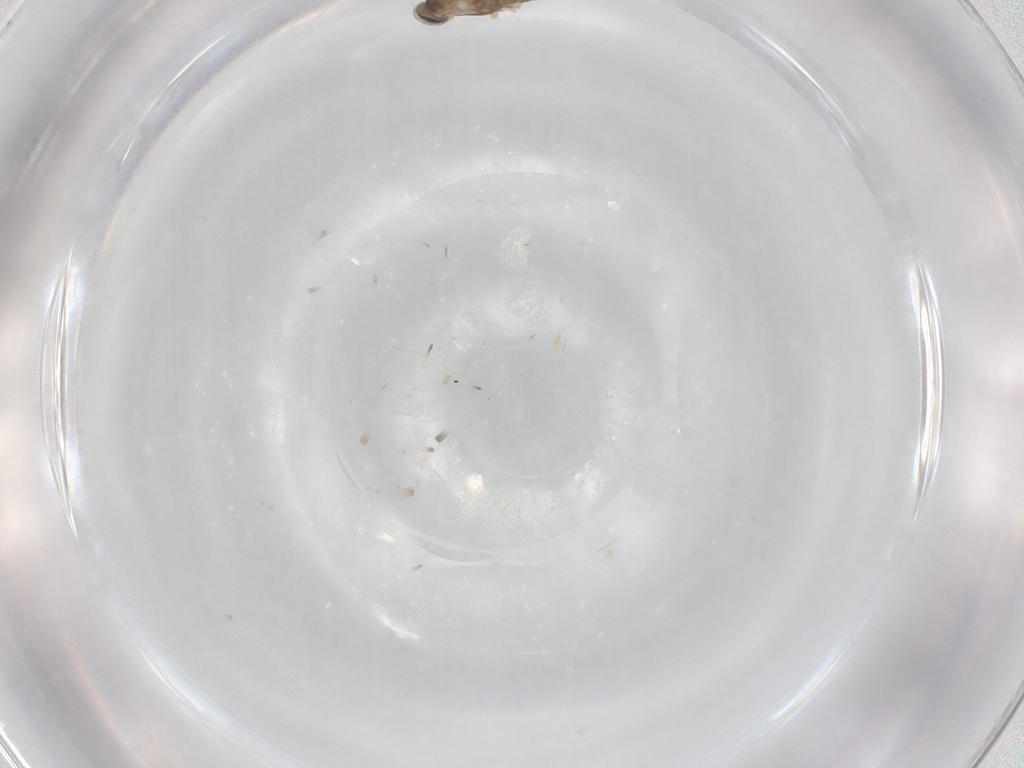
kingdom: Animalia
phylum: Arthropoda
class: Insecta
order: Diptera
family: Cecidomyiidae
